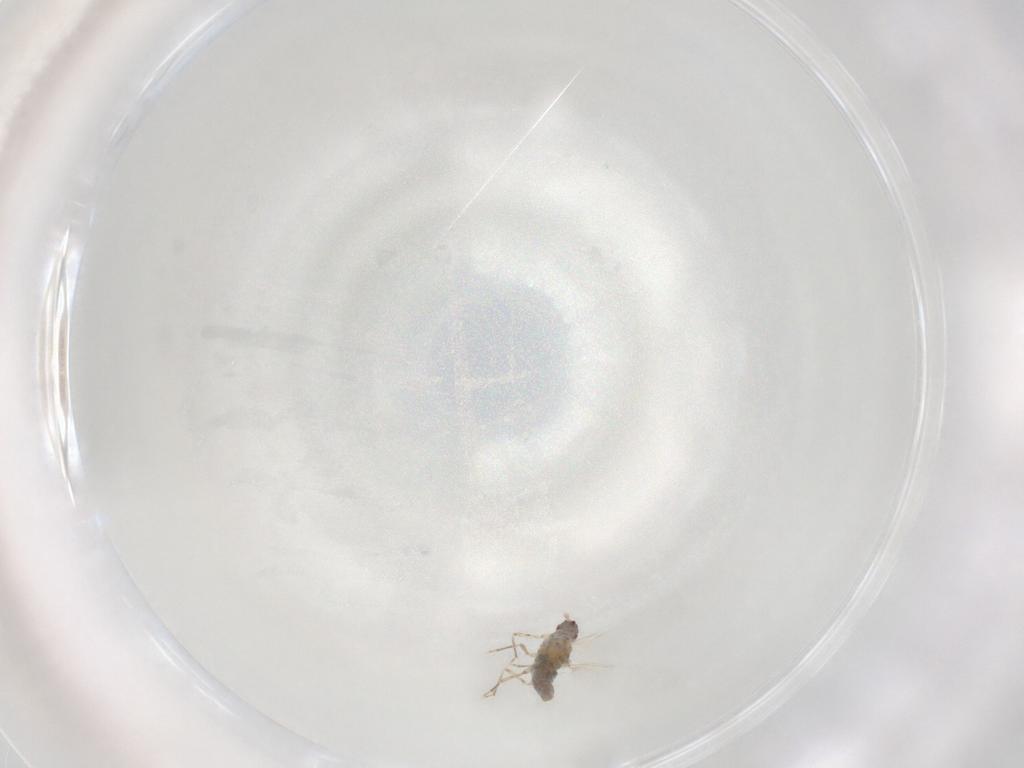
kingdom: Animalia
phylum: Arthropoda
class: Insecta
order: Hemiptera
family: Pseudococcidae
